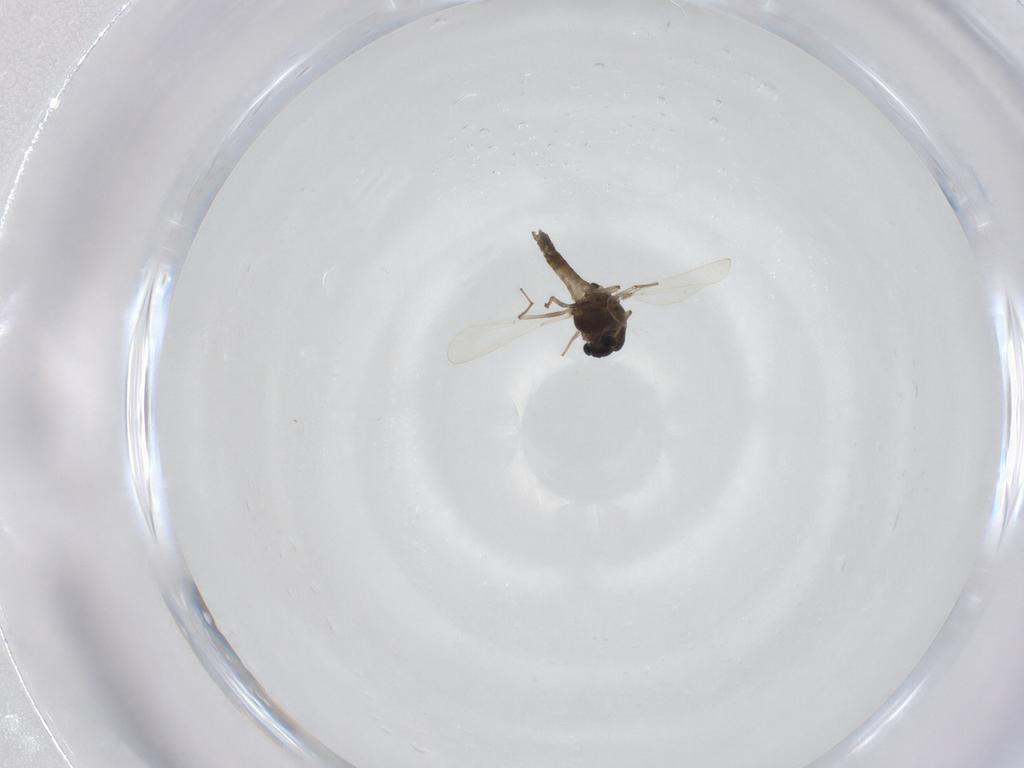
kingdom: Animalia
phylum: Arthropoda
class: Insecta
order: Diptera
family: Chironomidae
